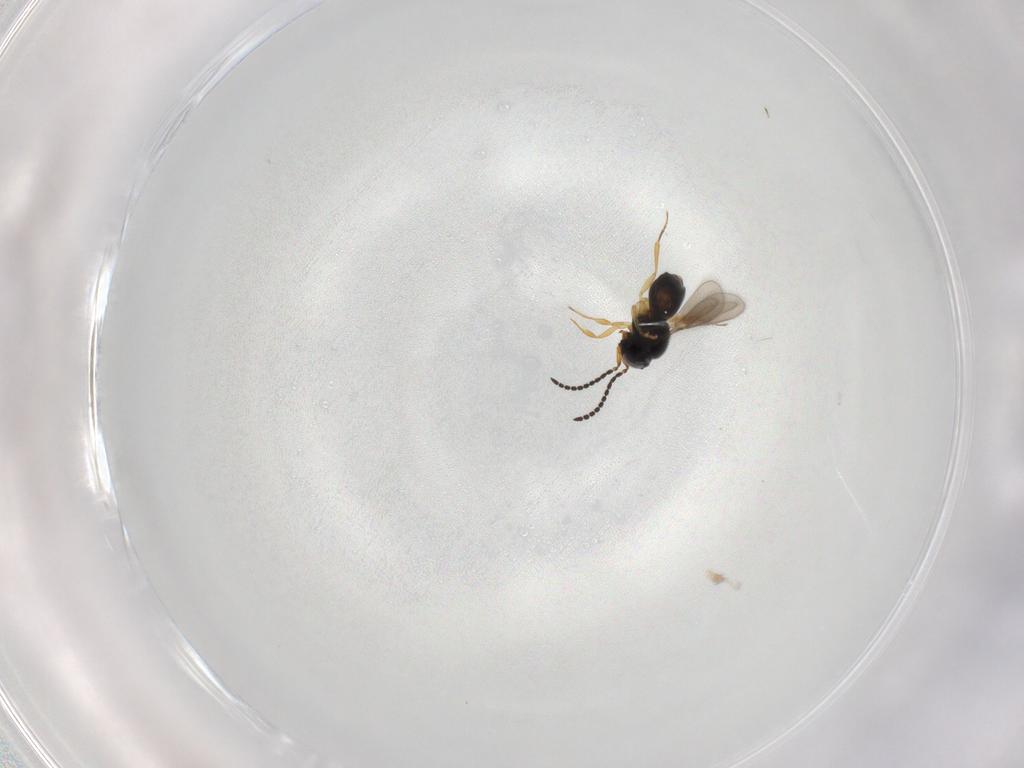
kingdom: Animalia
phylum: Arthropoda
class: Insecta
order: Hymenoptera
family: Scelionidae
